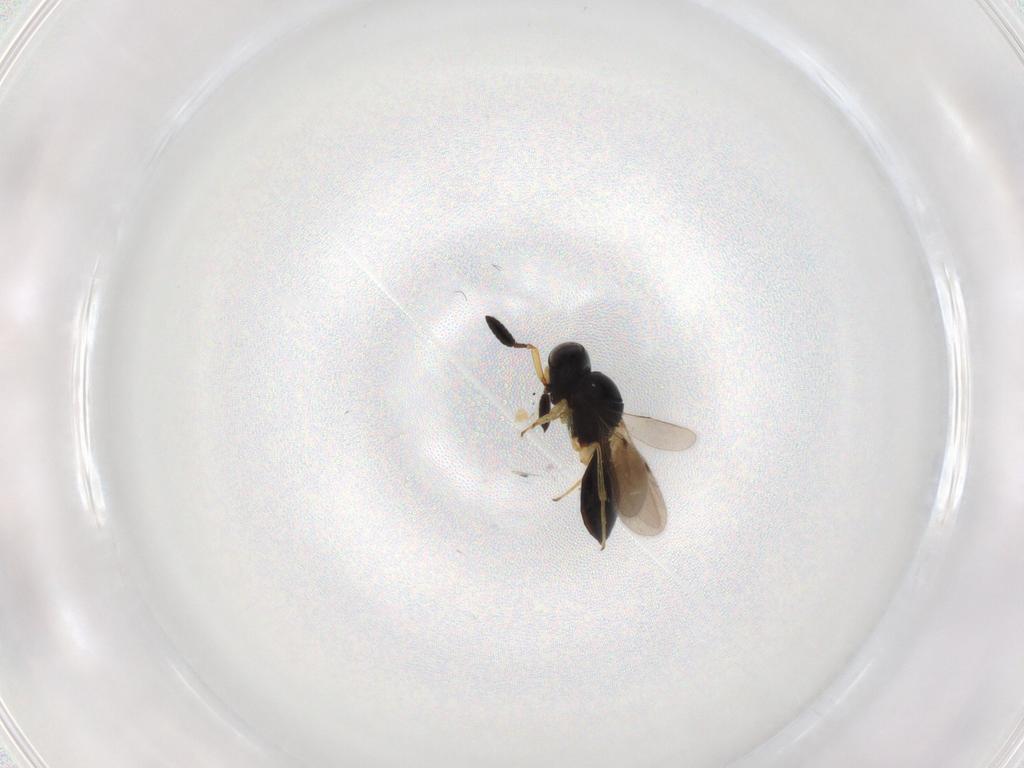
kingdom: Animalia
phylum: Arthropoda
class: Insecta
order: Hymenoptera
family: Scelionidae
